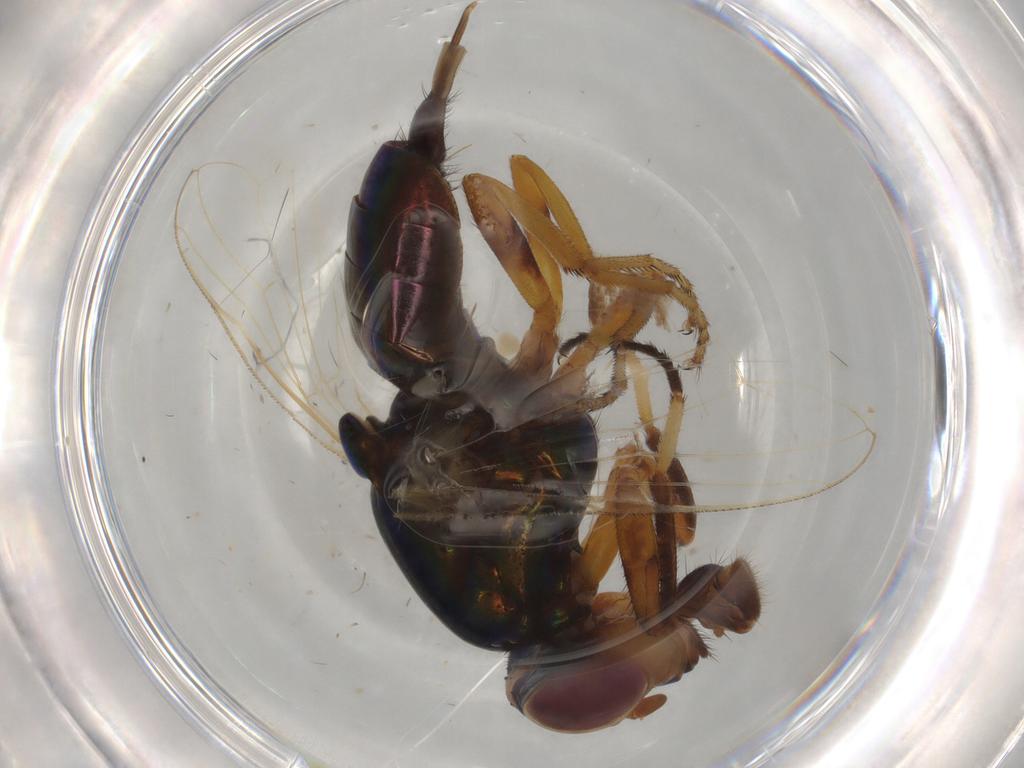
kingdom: Animalia
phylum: Arthropoda
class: Insecta
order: Diptera
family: Ulidiidae
